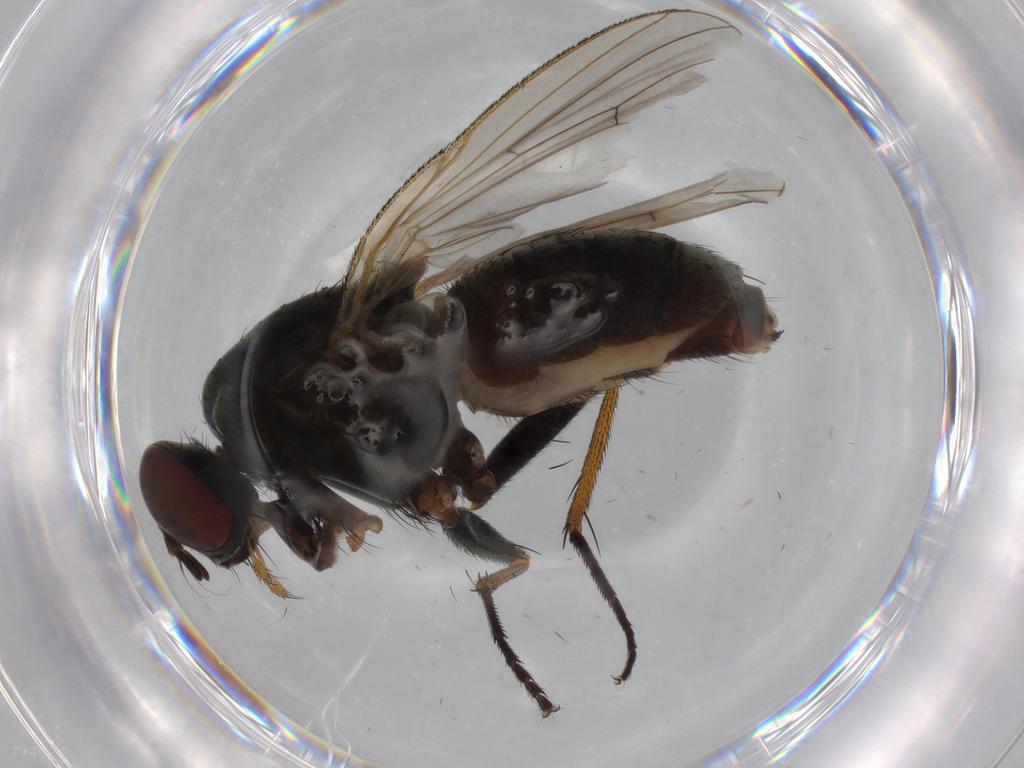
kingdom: Animalia
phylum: Arthropoda
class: Insecta
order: Diptera
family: Muscidae
